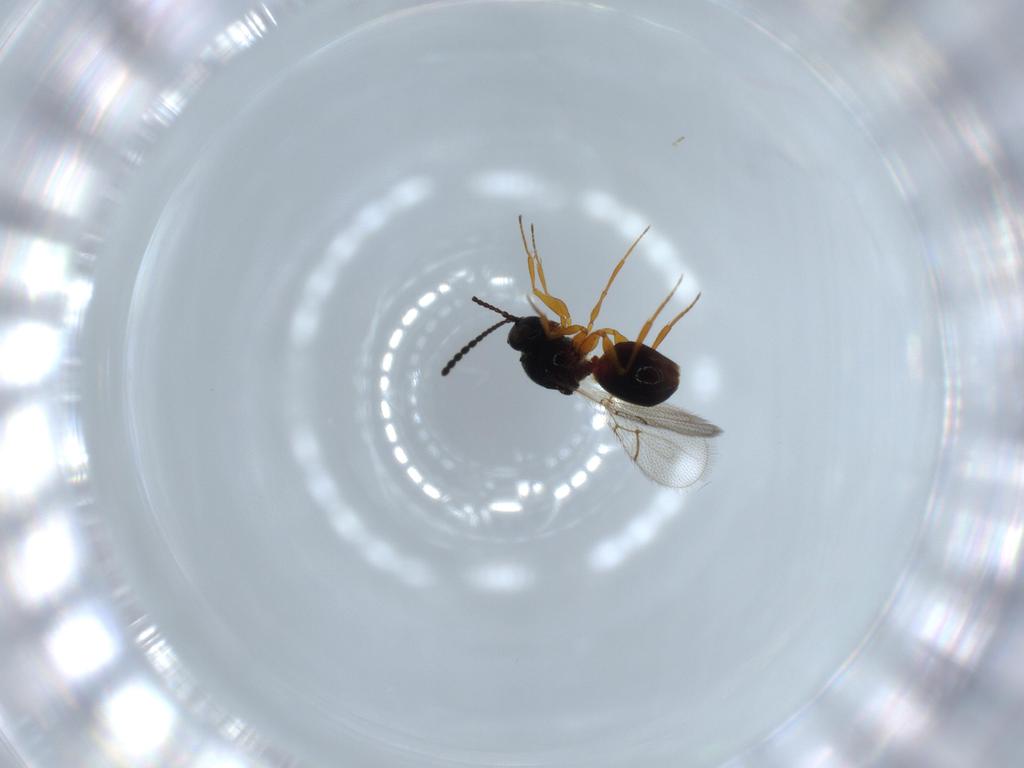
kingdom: Animalia
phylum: Arthropoda
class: Insecta
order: Hymenoptera
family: Figitidae
